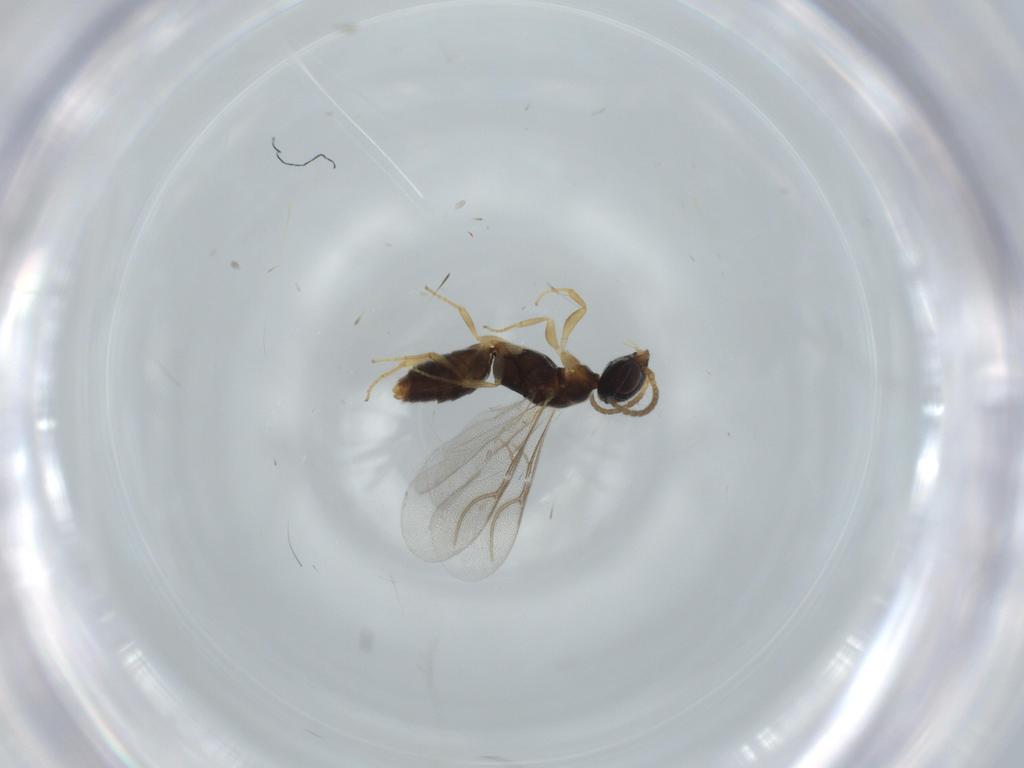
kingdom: Animalia
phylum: Arthropoda
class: Insecta
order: Hymenoptera
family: Bethylidae
